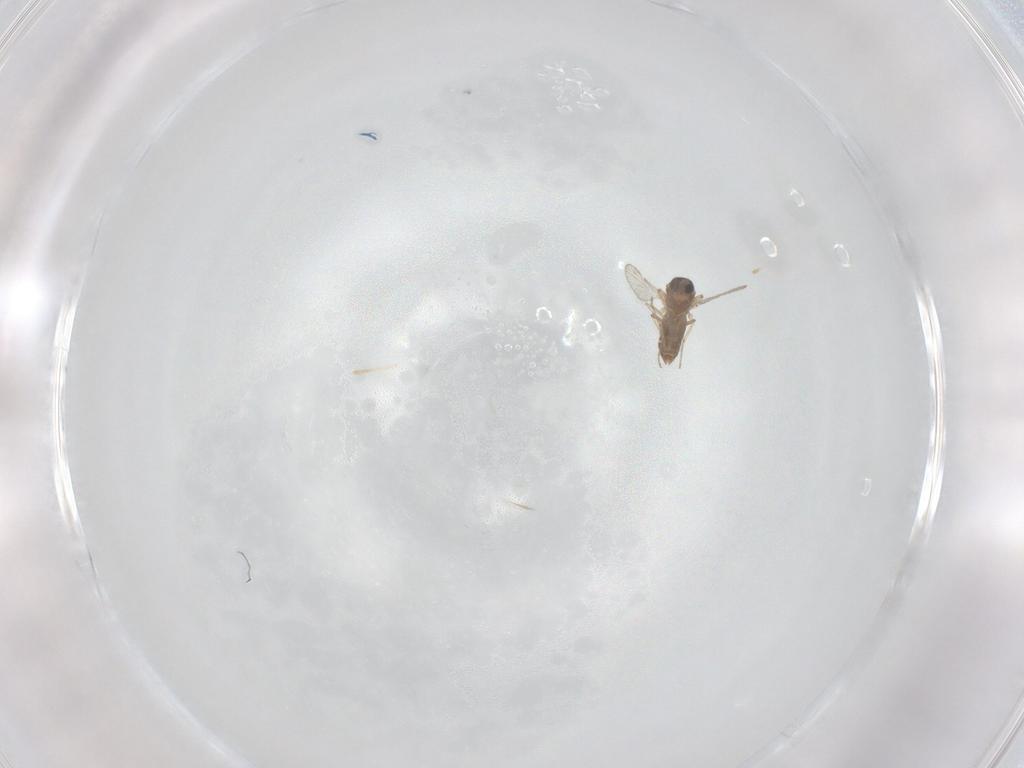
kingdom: Animalia
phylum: Arthropoda
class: Insecta
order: Diptera
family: Ceratopogonidae
